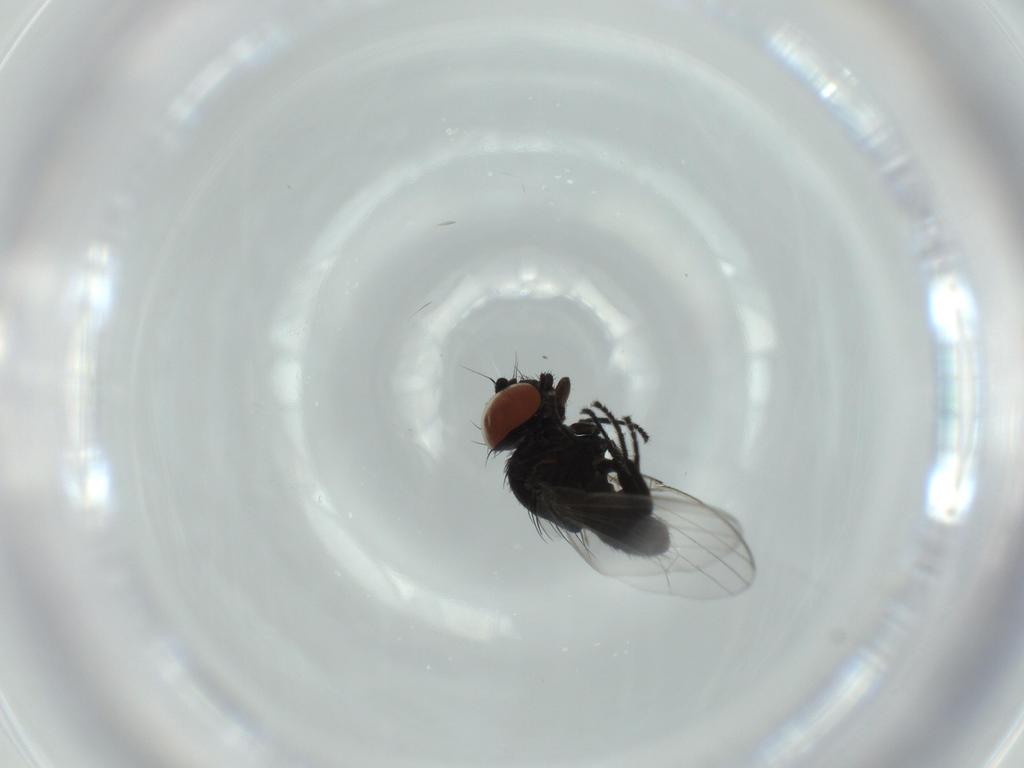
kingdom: Animalia
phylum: Arthropoda
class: Insecta
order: Diptera
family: Milichiidae
